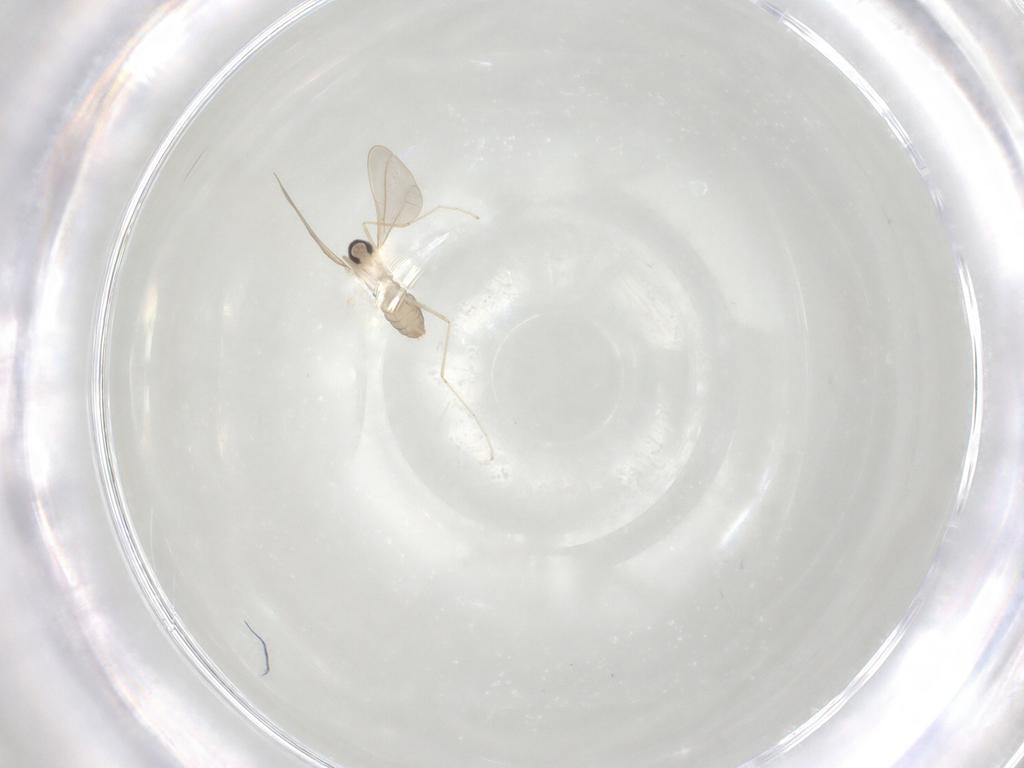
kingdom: Animalia
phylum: Arthropoda
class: Insecta
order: Diptera
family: Cecidomyiidae
